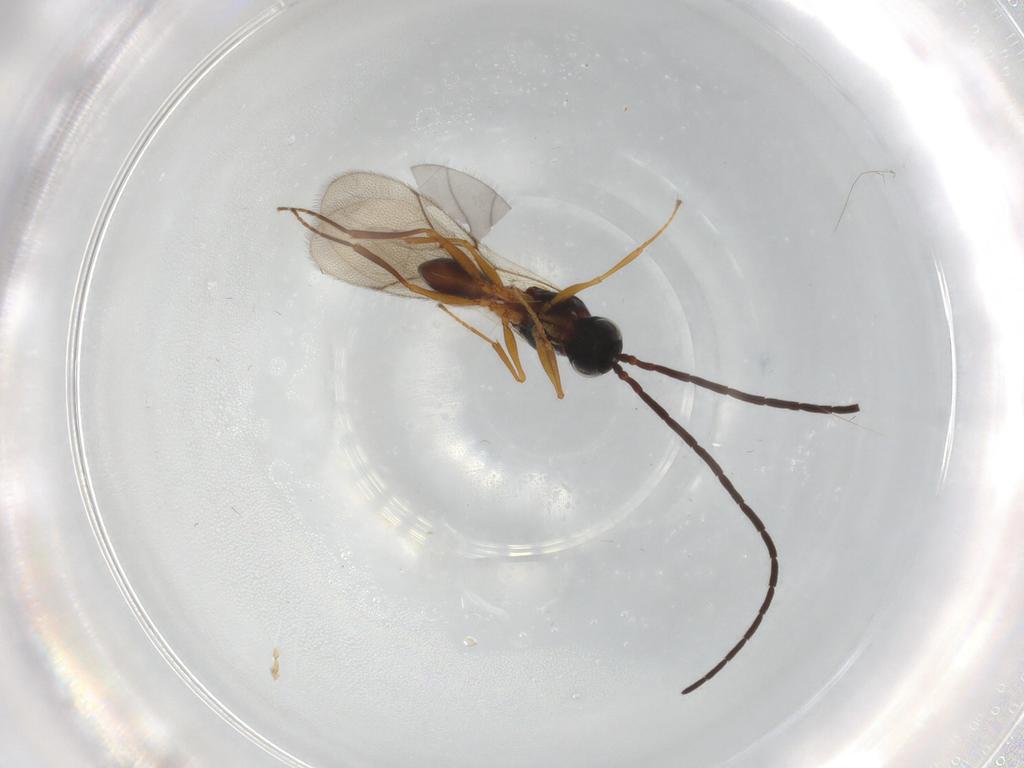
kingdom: Animalia
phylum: Arthropoda
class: Insecta
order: Hymenoptera
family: Figitidae
